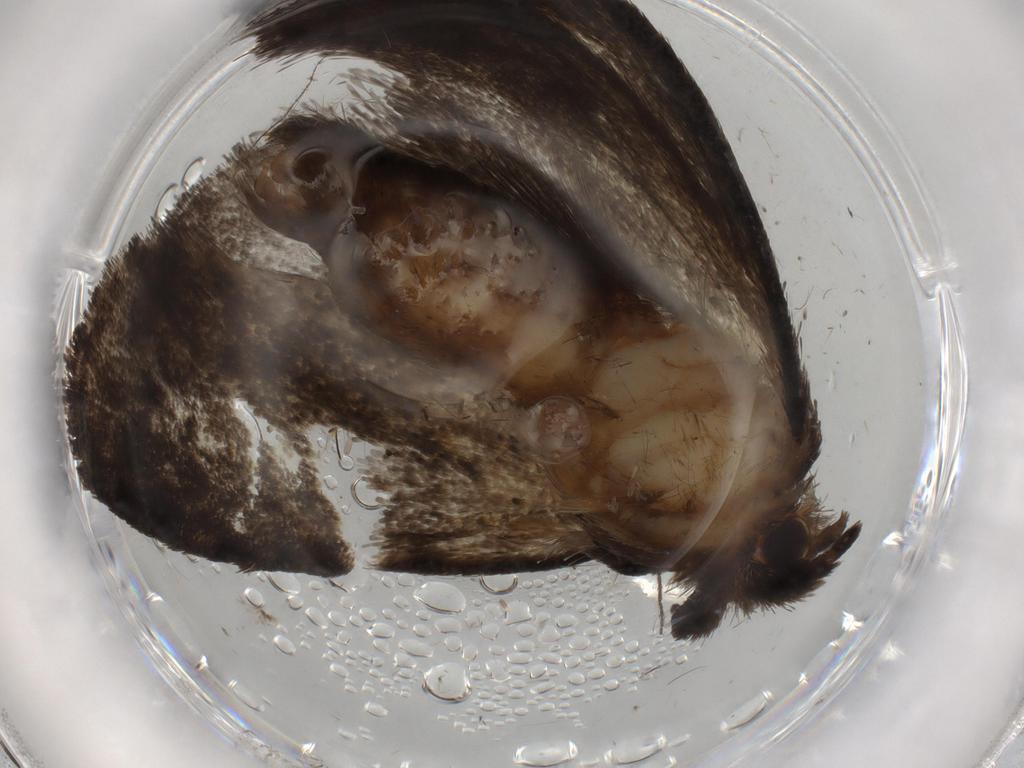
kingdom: Animalia
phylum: Arthropoda
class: Insecta
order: Lepidoptera
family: Tineidae
